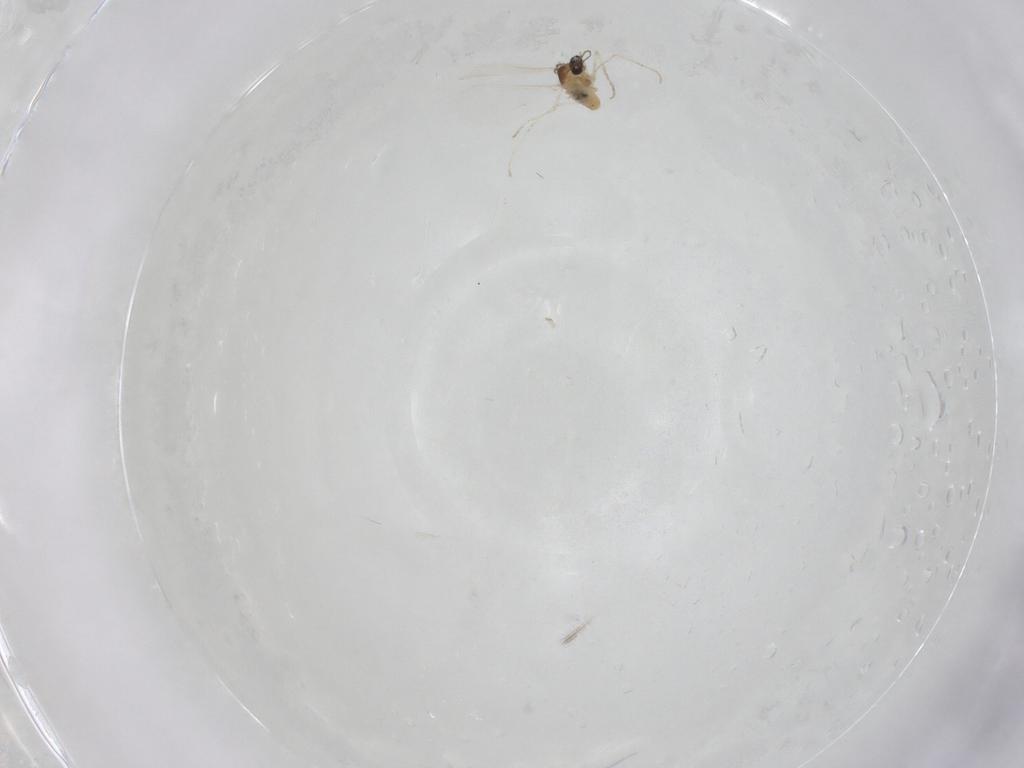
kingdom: Animalia
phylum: Arthropoda
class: Insecta
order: Diptera
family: Cecidomyiidae
